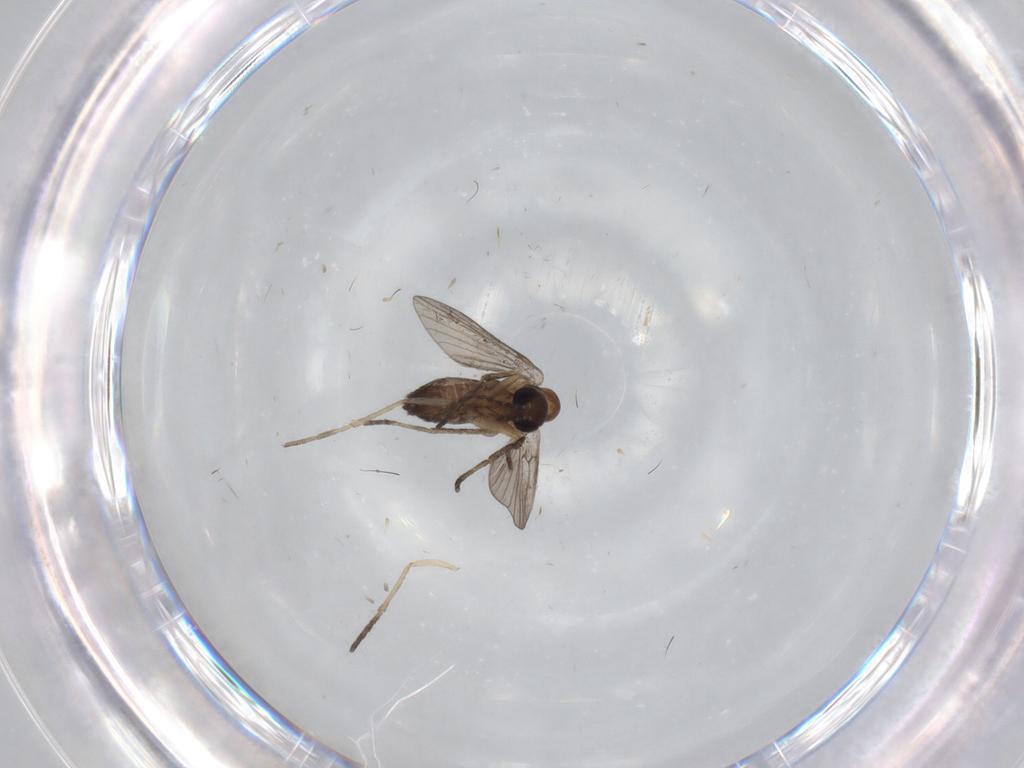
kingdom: Animalia
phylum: Arthropoda
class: Insecta
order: Diptera
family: Psychodidae
